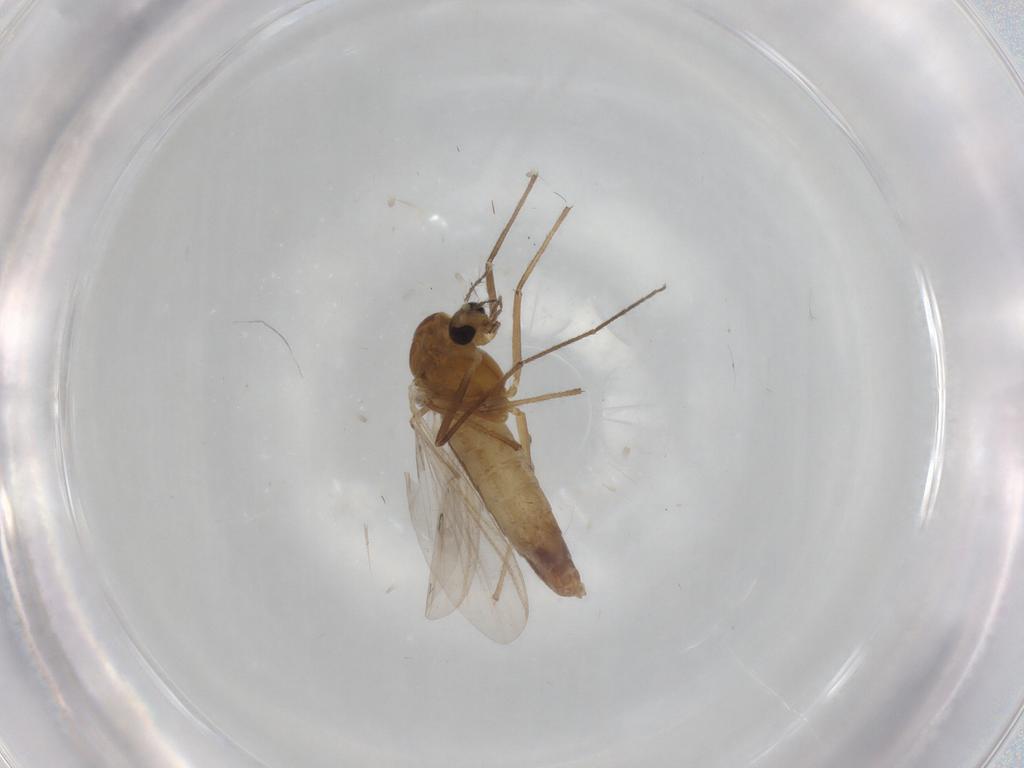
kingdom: Animalia
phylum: Arthropoda
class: Insecta
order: Diptera
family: Chironomidae
